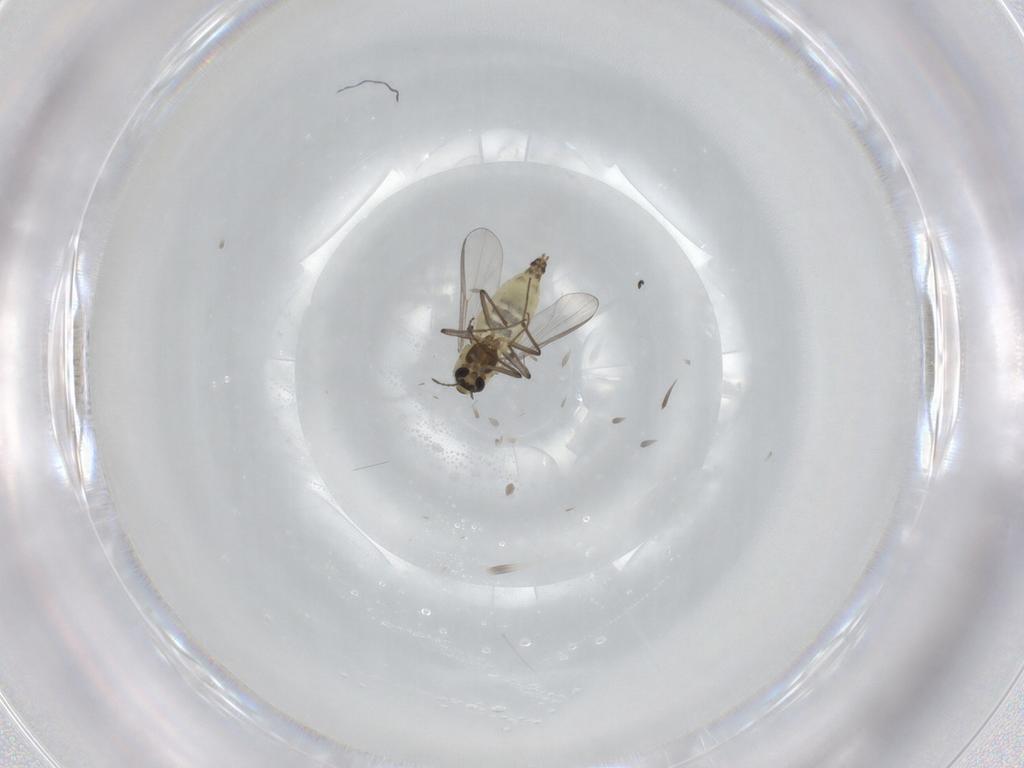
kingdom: Animalia
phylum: Arthropoda
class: Insecta
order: Diptera
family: Chironomidae
